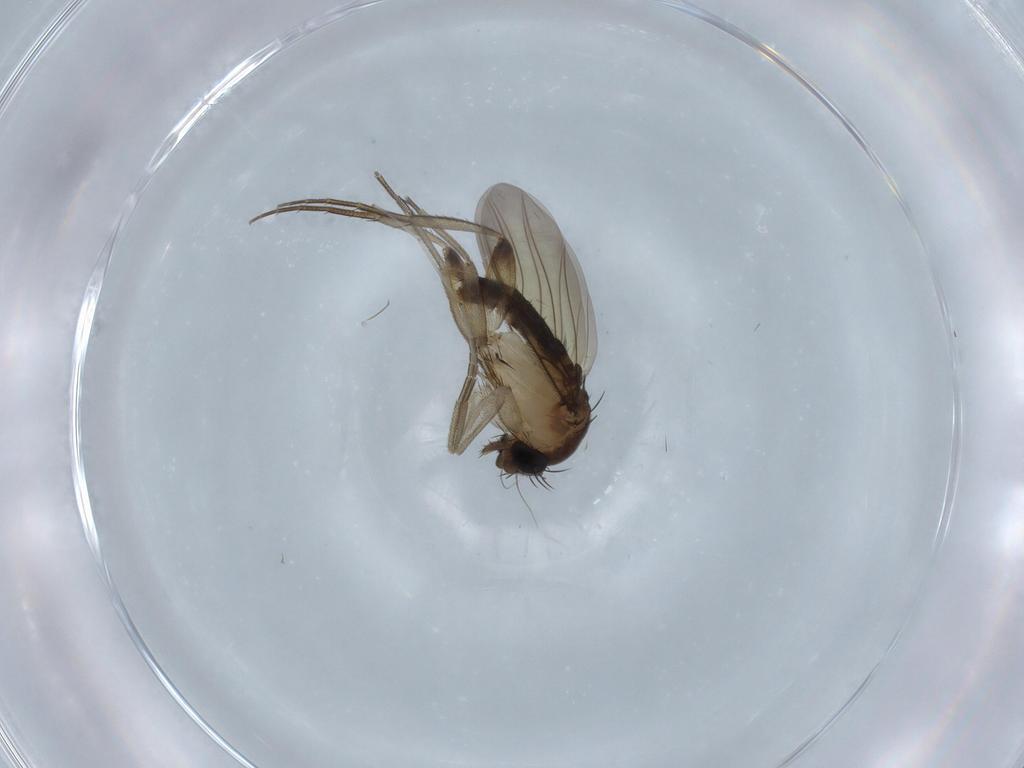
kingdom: Animalia
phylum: Arthropoda
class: Insecta
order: Diptera
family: Phoridae
